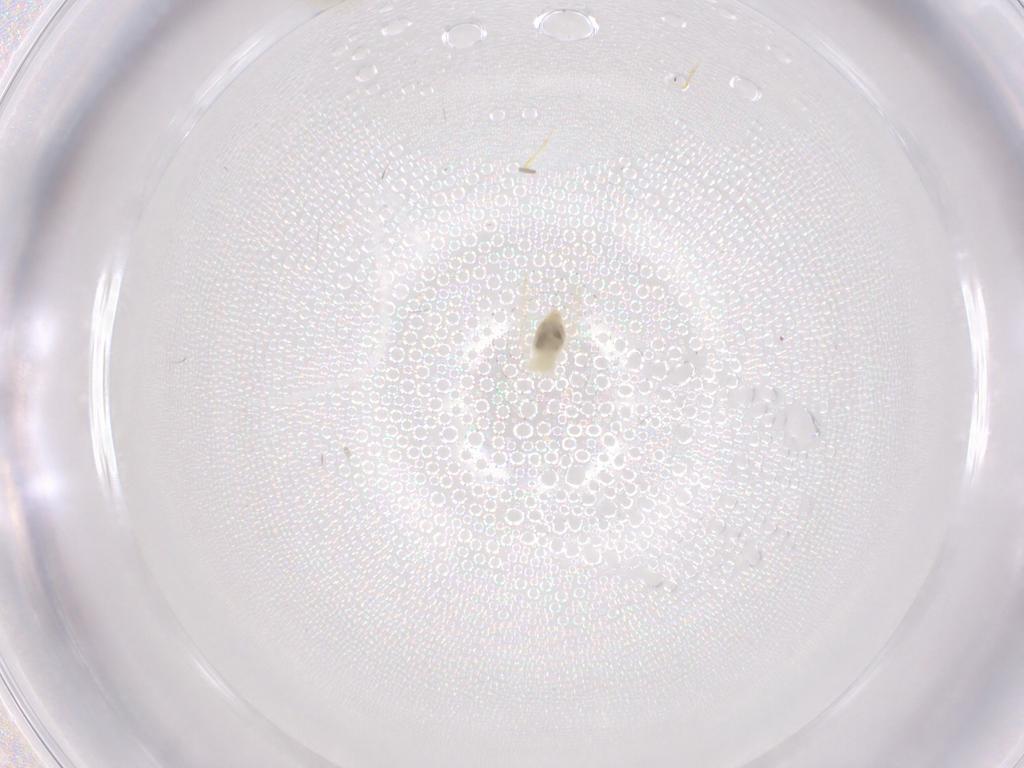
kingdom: Animalia
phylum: Arthropoda
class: Insecta
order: Hemiptera
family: Aleyrodidae
